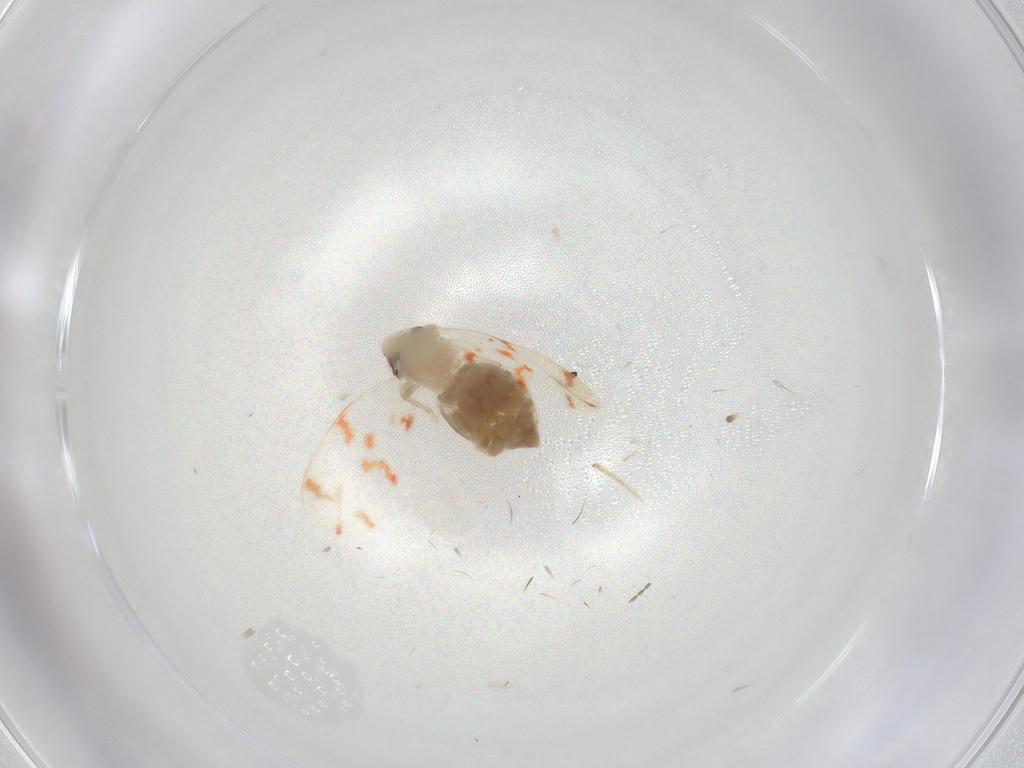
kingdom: Animalia
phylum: Arthropoda
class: Insecta
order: Hemiptera
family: Aleyrodidae
